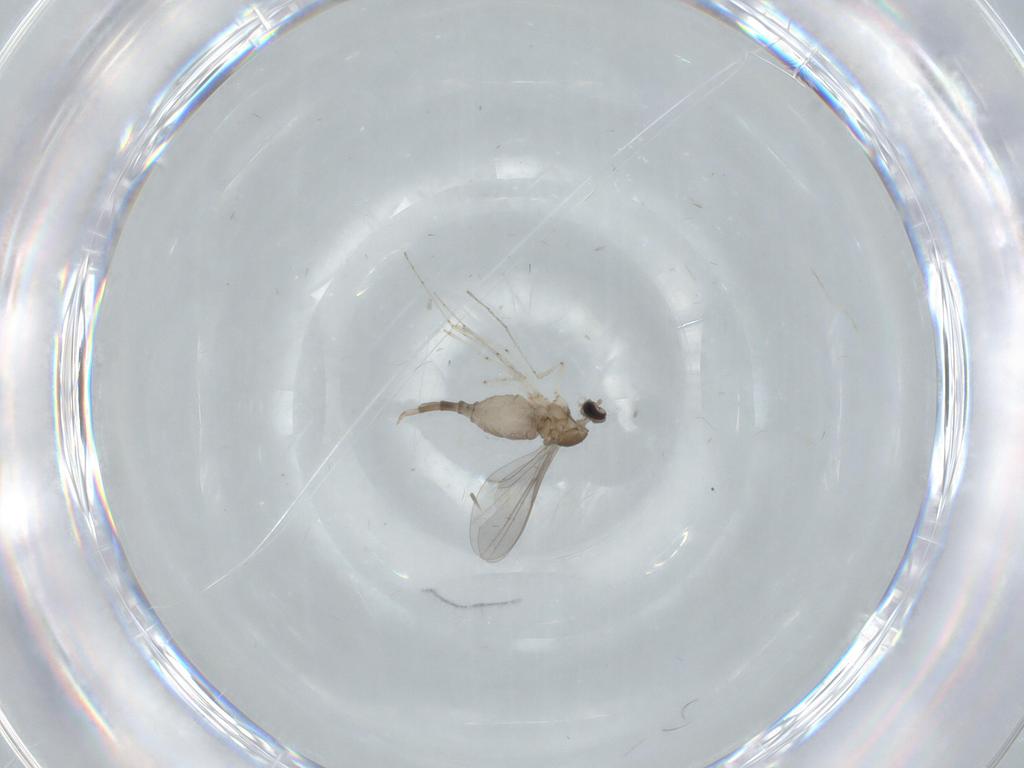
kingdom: Animalia
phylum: Arthropoda
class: Insecta
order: Diptera
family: Cecidomyiidae
